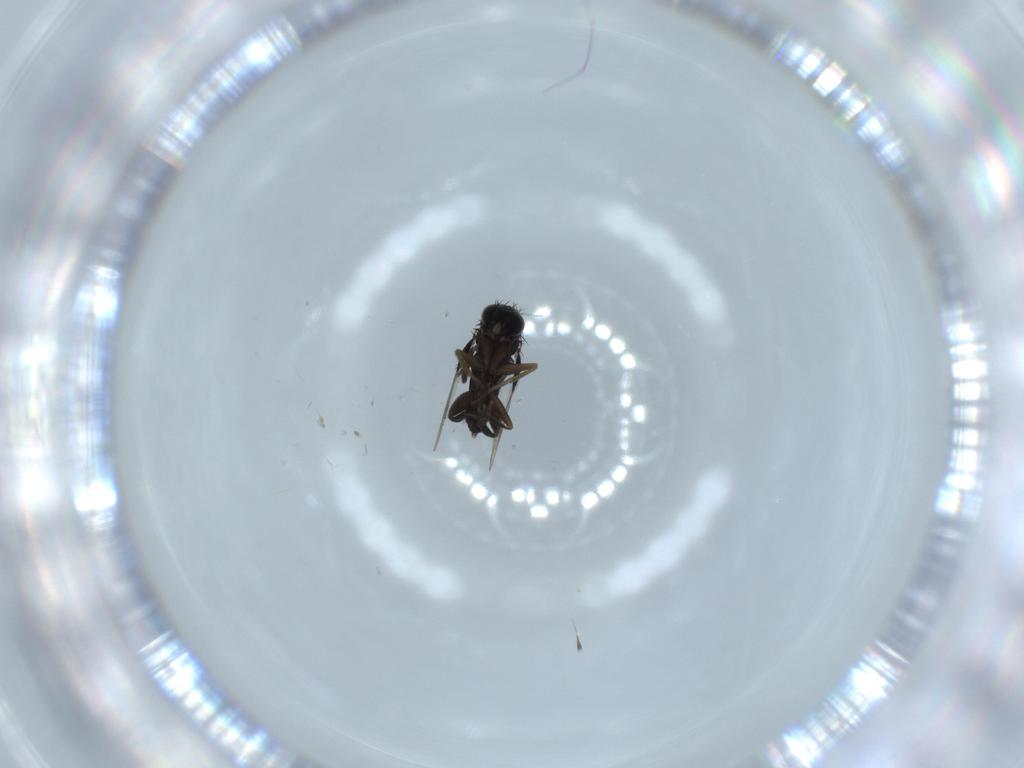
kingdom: Animalia
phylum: Arthropoda
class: Insecta
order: Diptera
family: Phoridae
